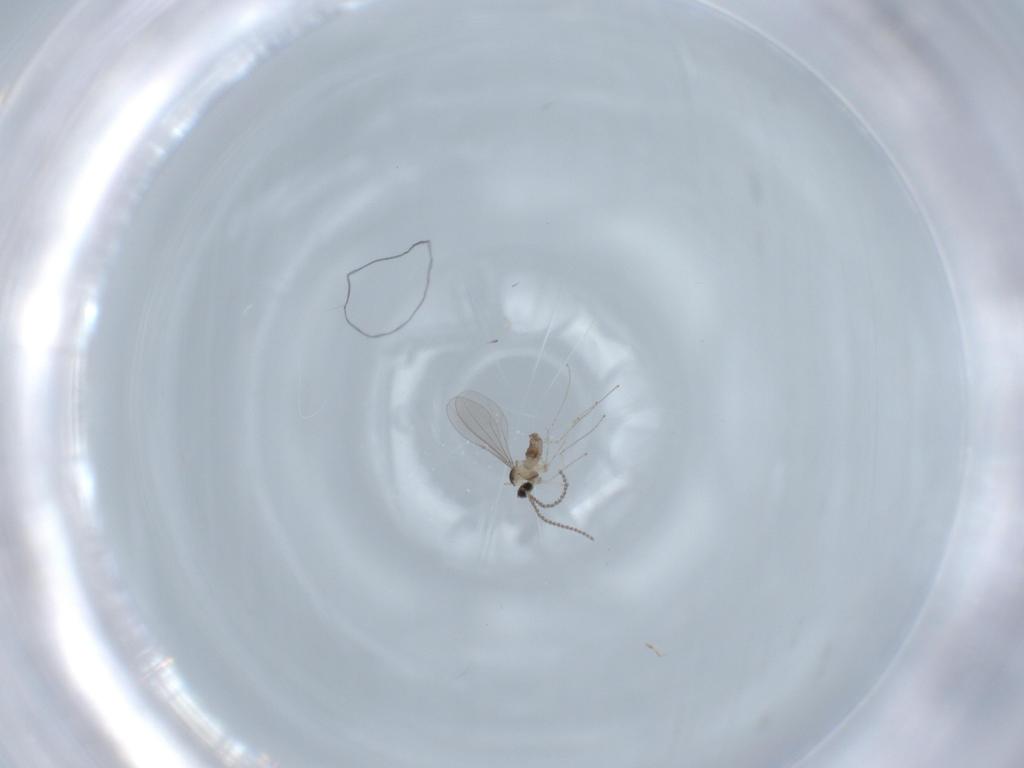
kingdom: Animalia
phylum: Arthropoda
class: Insecta
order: Diptera
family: Cecidomyiidae
